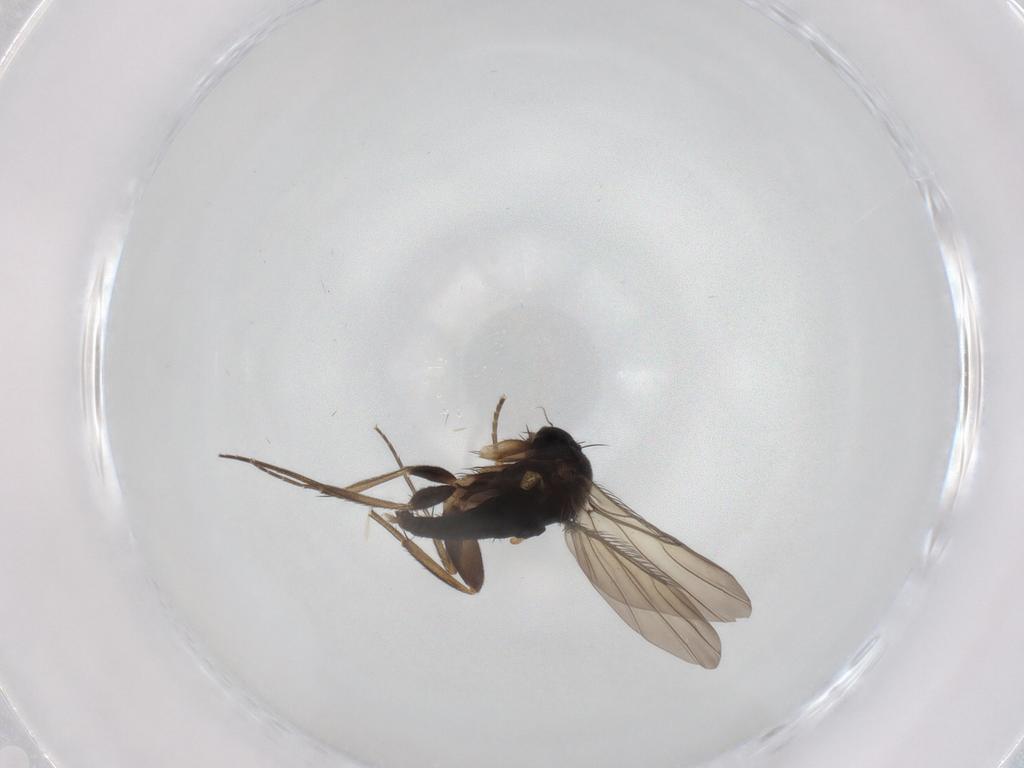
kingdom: Animalia
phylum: Arthropoda
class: Insecta
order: Diptera
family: Phoridae
